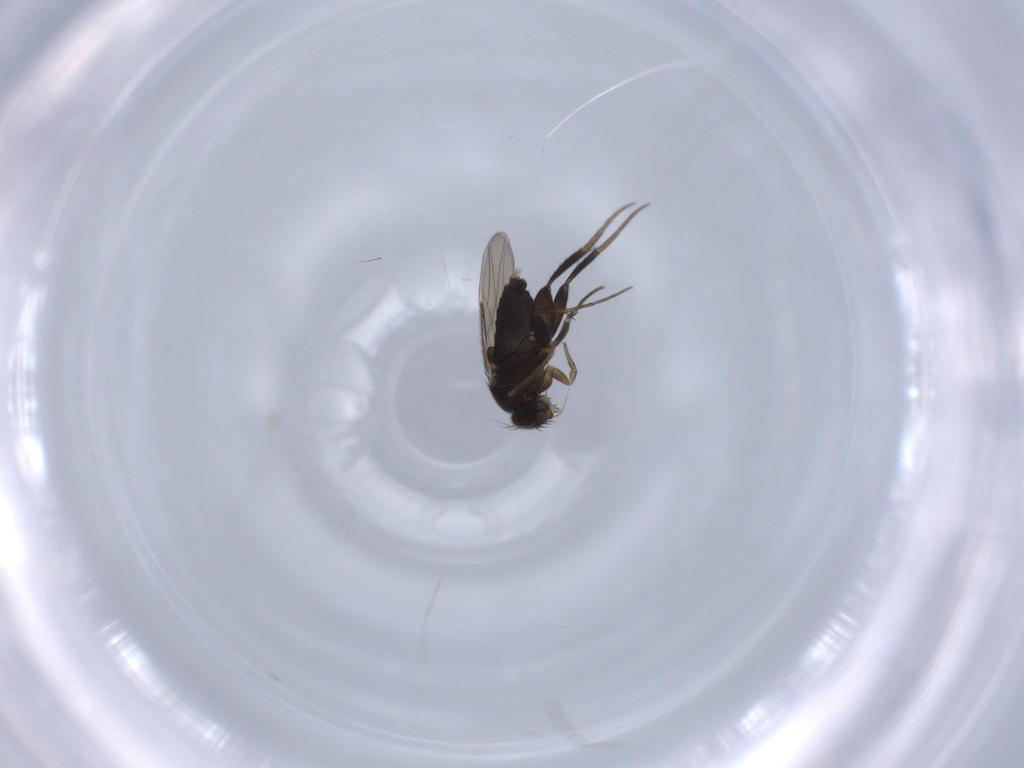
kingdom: Animalia
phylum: Arthropoda
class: Insecta
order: Diptera
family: Phoridae
